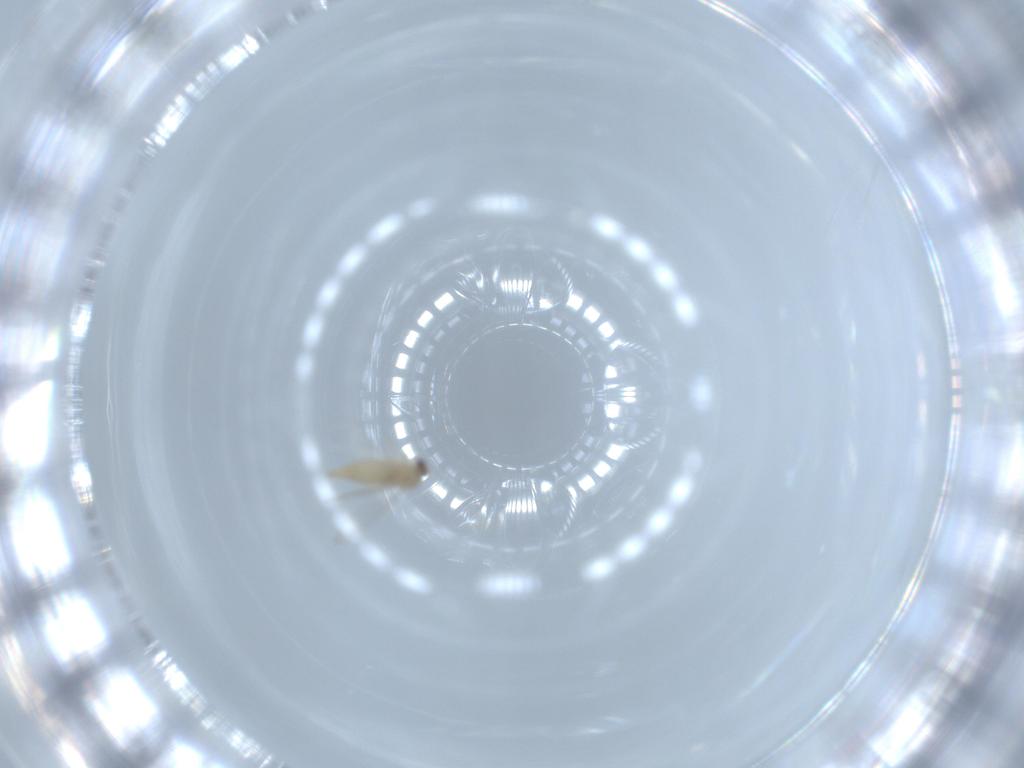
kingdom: Animalia
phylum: Arthropoda
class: Insecta
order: Diptera
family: Cecidomyiidae
